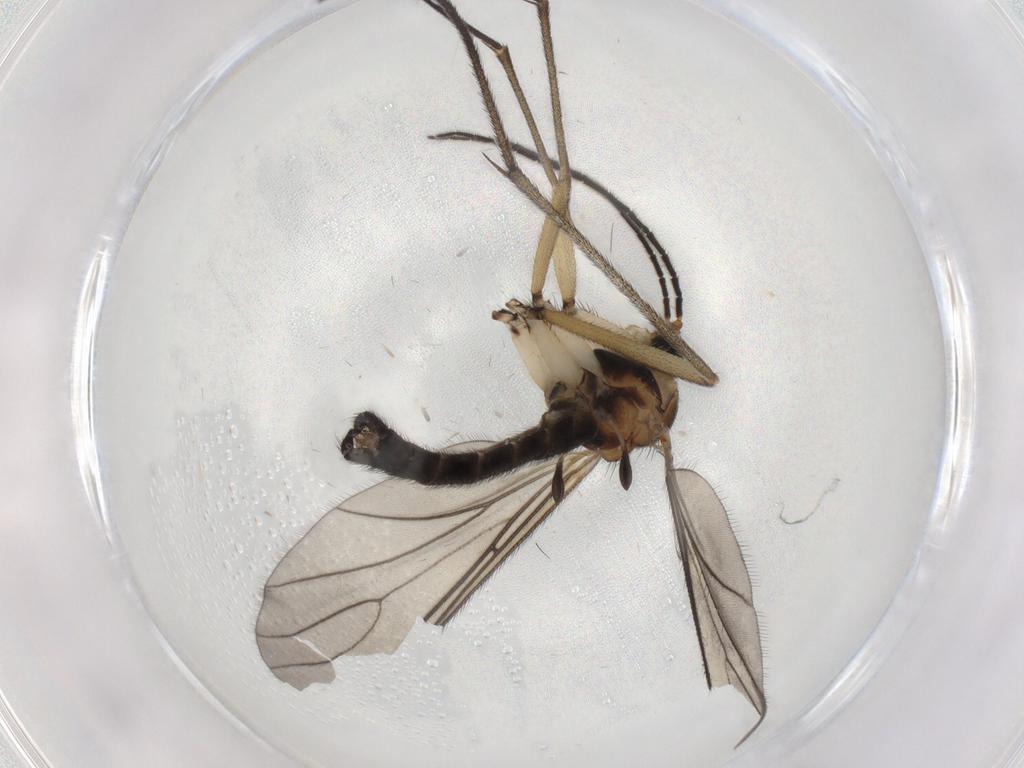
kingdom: Animalia
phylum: Arthropoda
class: Insecta
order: Diptera
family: Sciaridae
